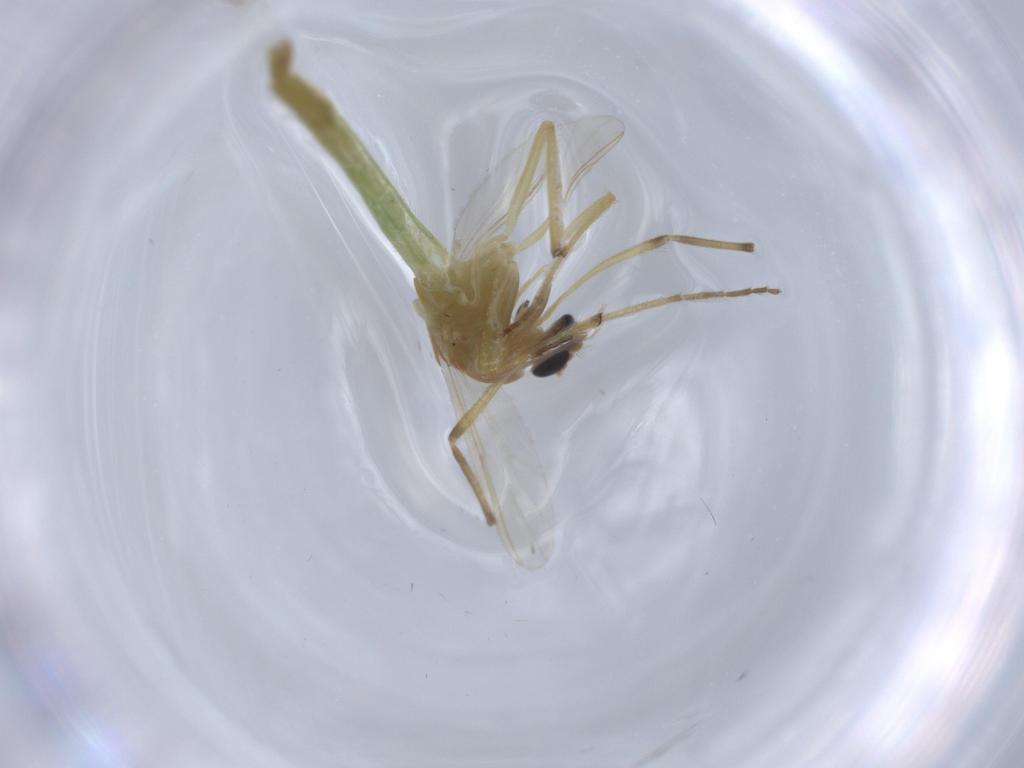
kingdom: Animalia
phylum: Arthropoda
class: Insecta
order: Diptera
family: Chironomidae
